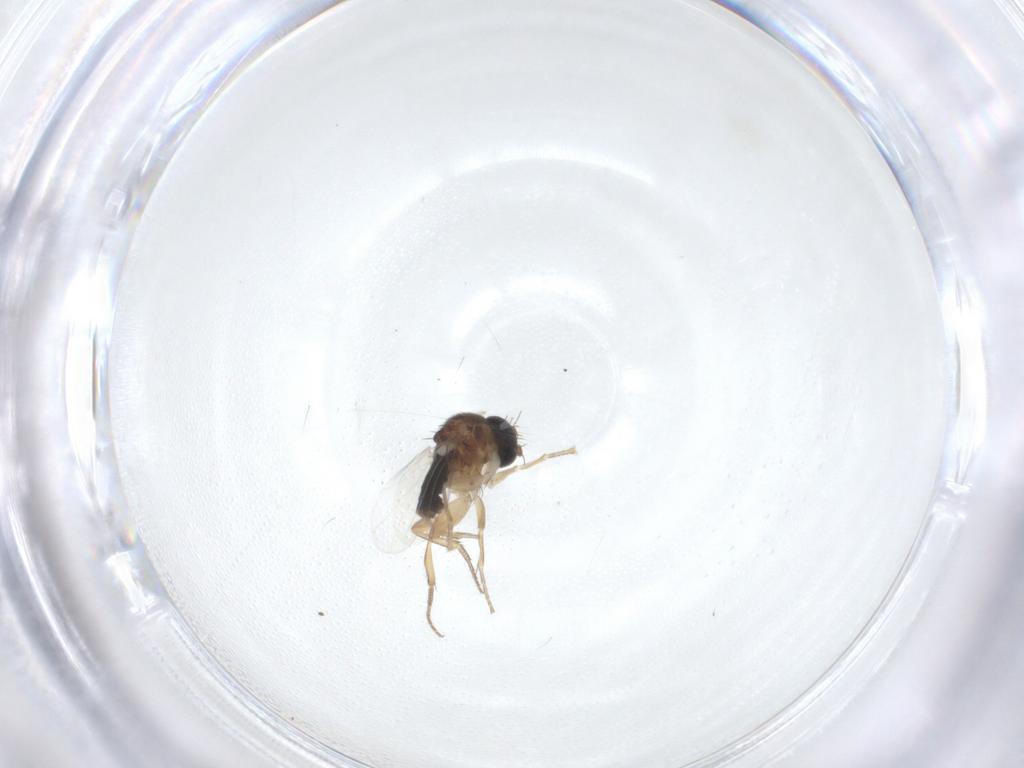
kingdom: Animalia
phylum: Arthropoda
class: Insecta
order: Diptera
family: Phoridae
